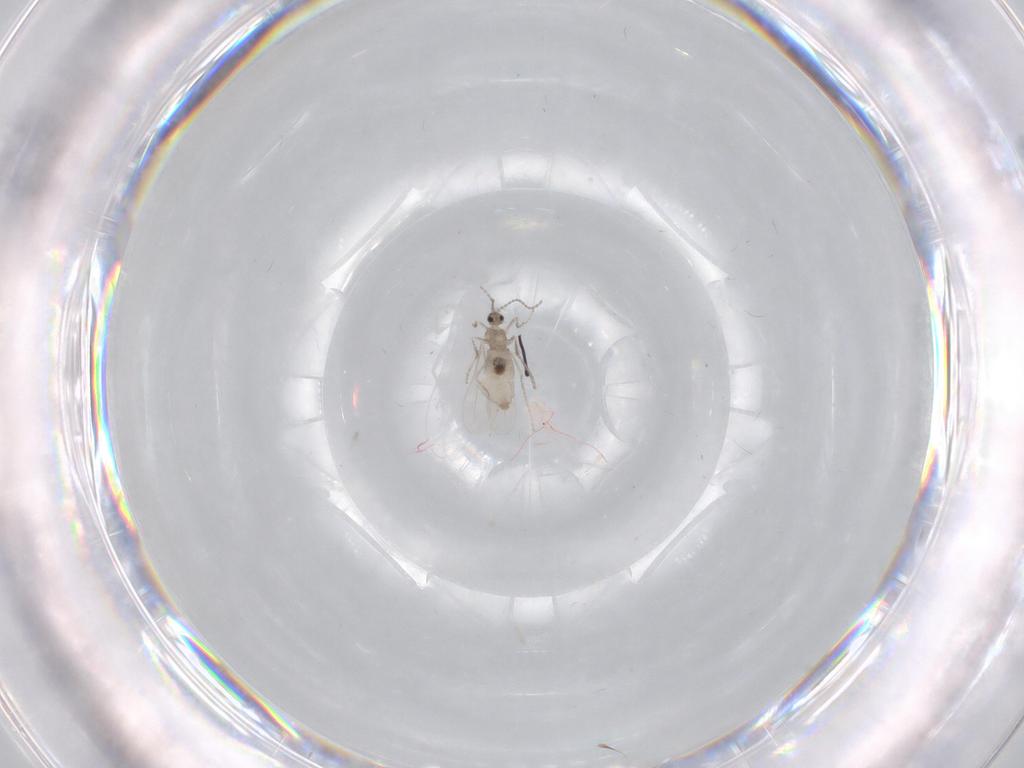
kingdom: Animalia
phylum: Arthropoda
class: Insecta
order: Diptera
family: Cecidomyiidae
